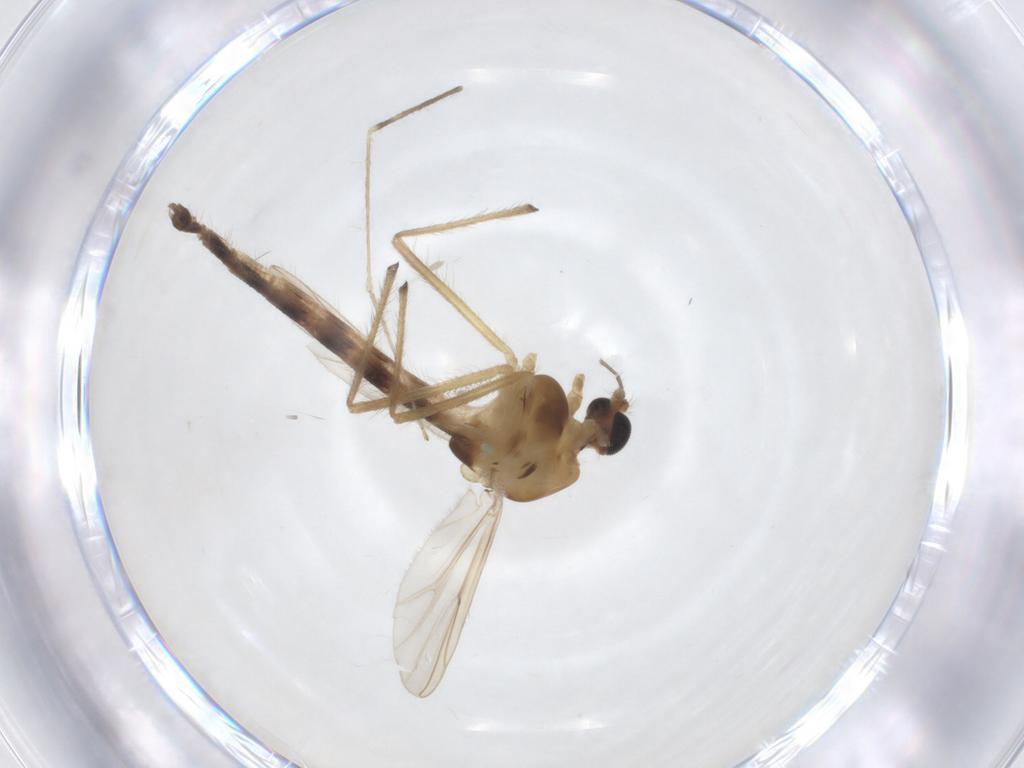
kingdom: Animalia
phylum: Arthropoda
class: Insecta
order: Diptera
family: Chironomidae
